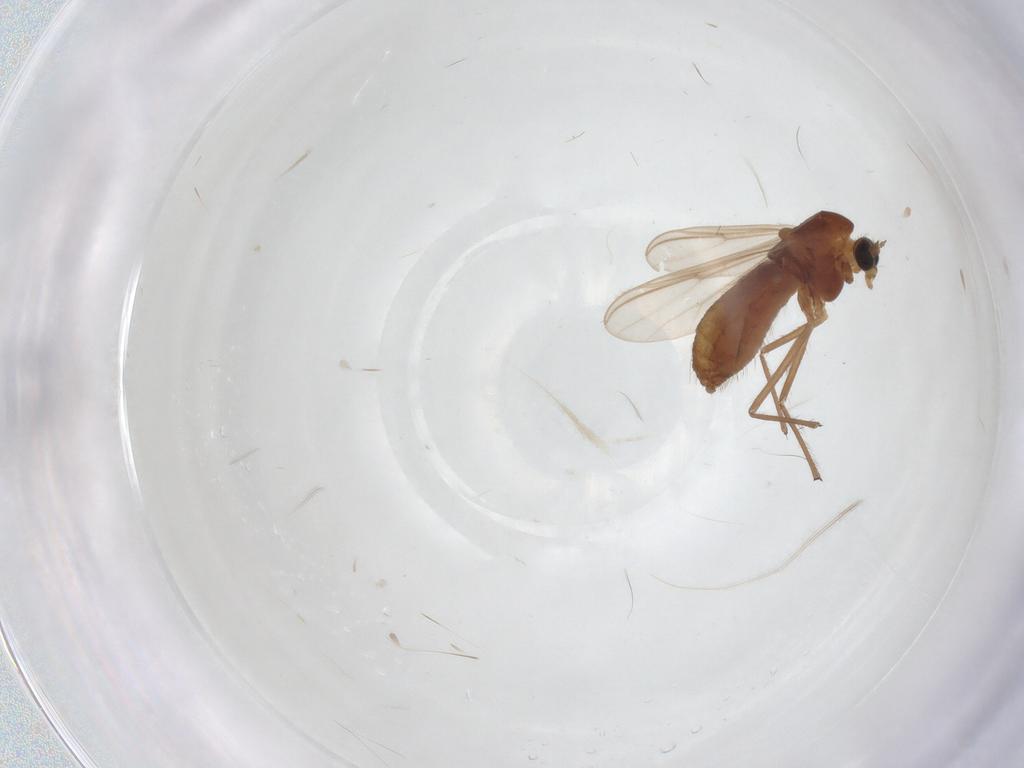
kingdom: Animalia
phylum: Arthropoda
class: Insecta
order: Diptera
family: Chironomidae
